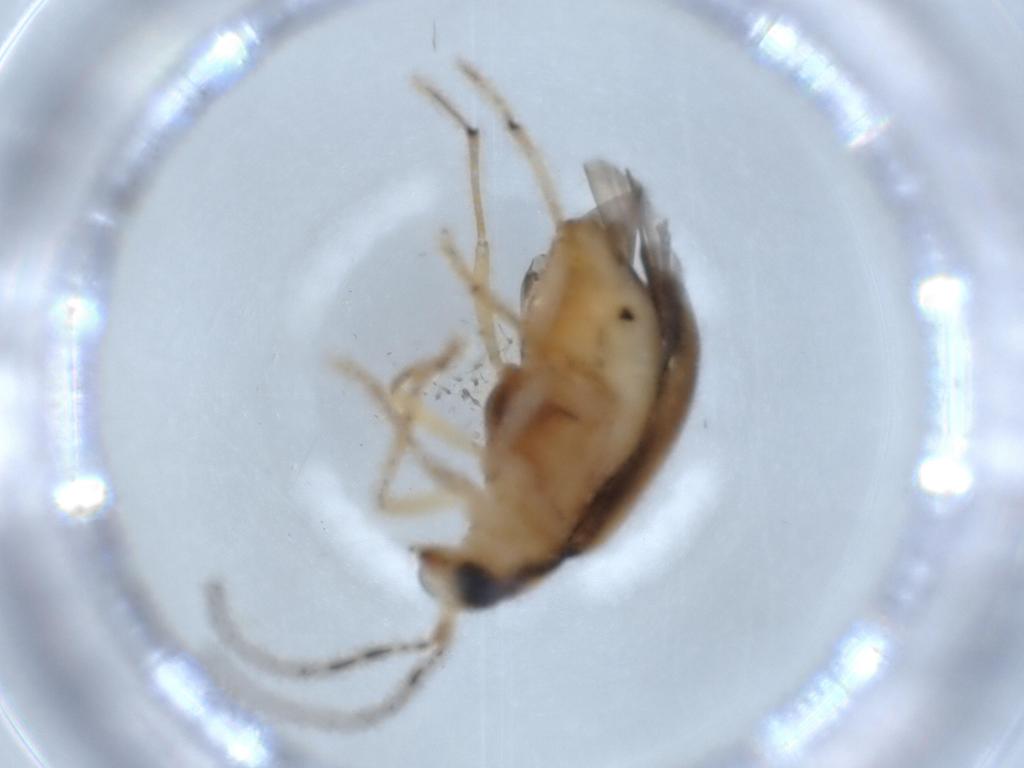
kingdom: Animalia
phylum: Arthropoda
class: Insecta
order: Coleoptera
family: Chrysomelidae
